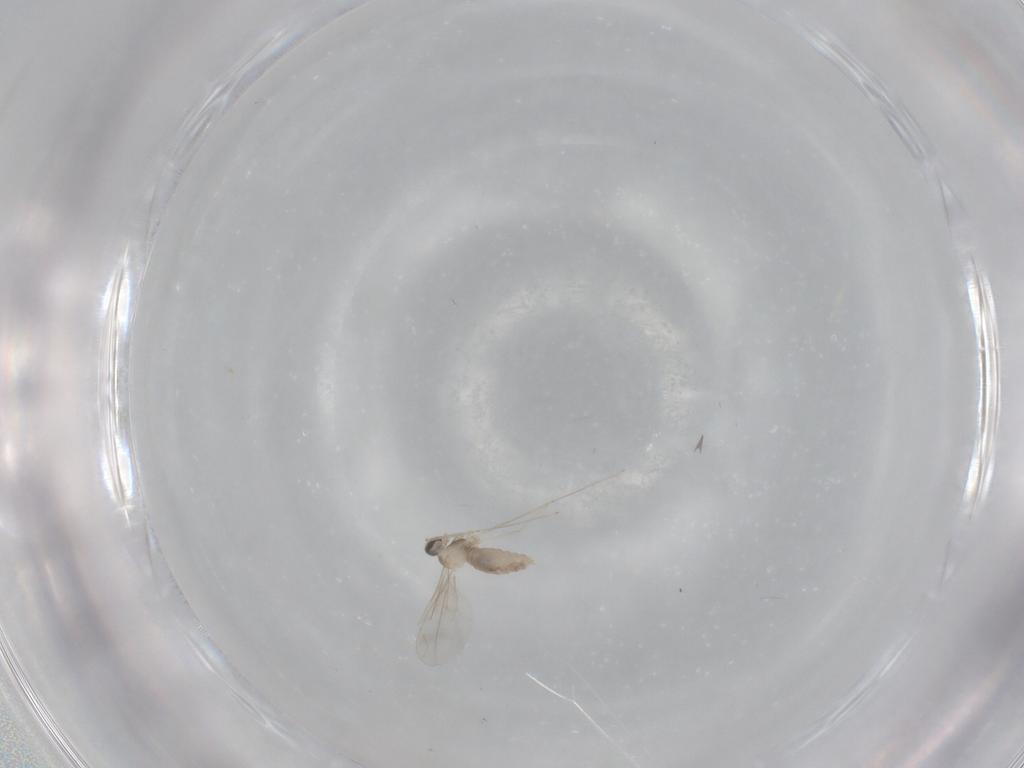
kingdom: Animalia
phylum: Arthropoda
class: Insecta
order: Diptera
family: Cecidomyiidae
